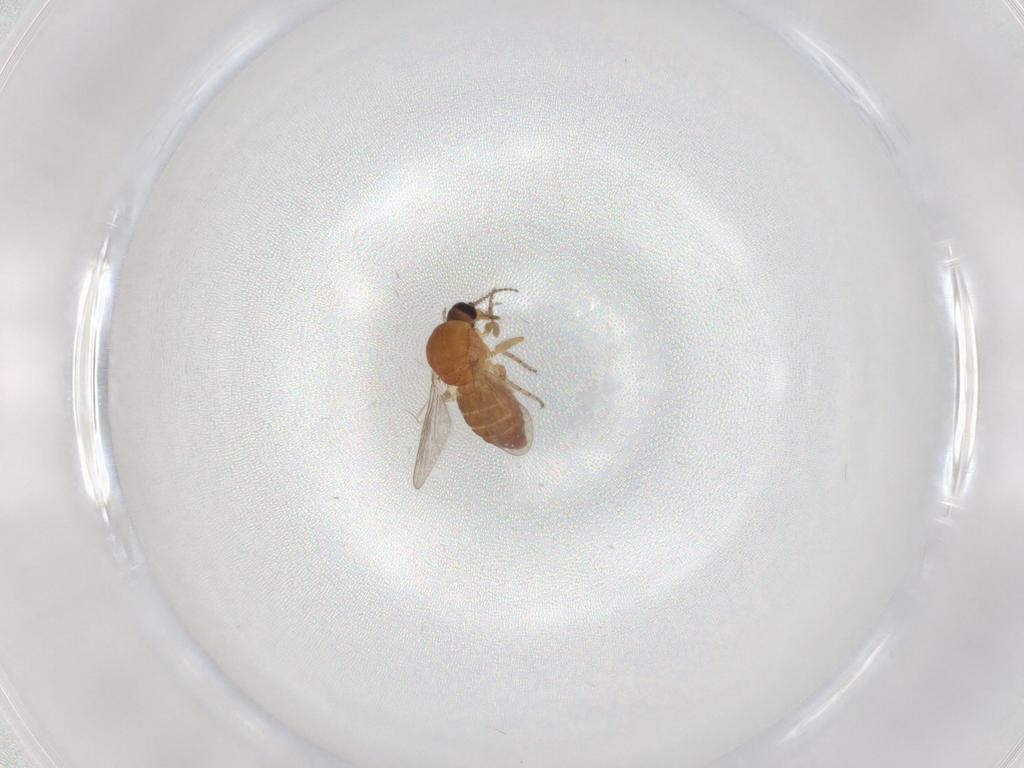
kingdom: Animalia
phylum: Arthropoda
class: Insecta
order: Diptera
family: Ceratopogonidae
